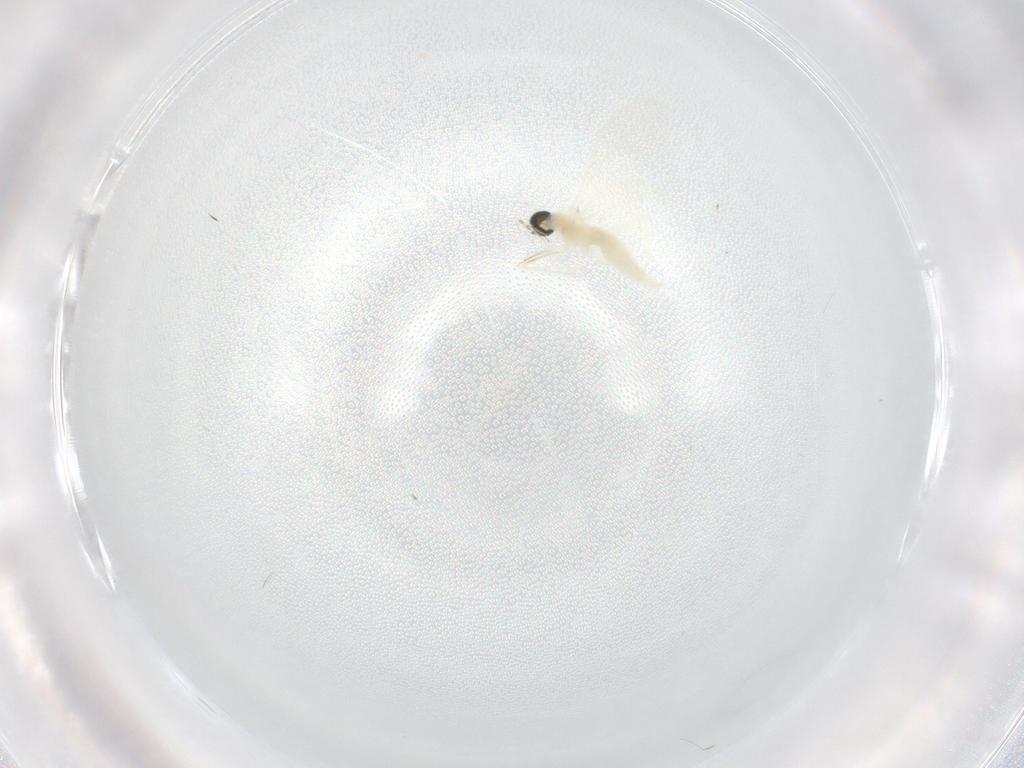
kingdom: Animalia
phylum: Arthropoda
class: Insecta
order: Diptera
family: Cecidomyiidae
